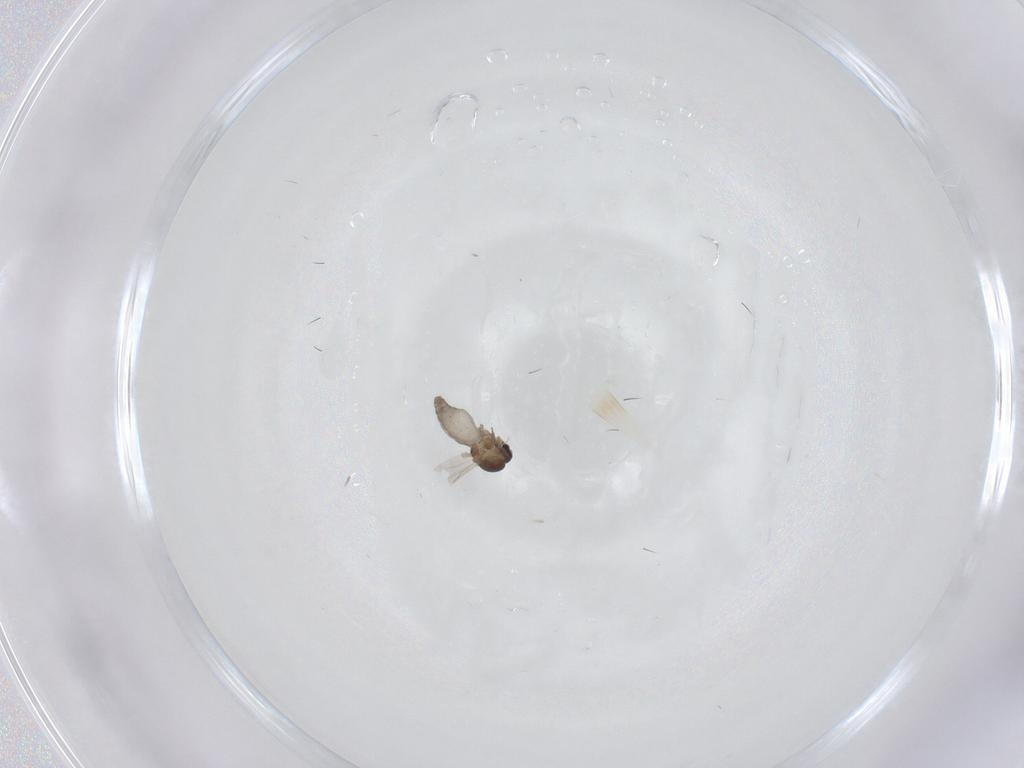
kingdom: Animalia
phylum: Arthropoda
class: Insecta
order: Diptera
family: Ceratopogonidae
